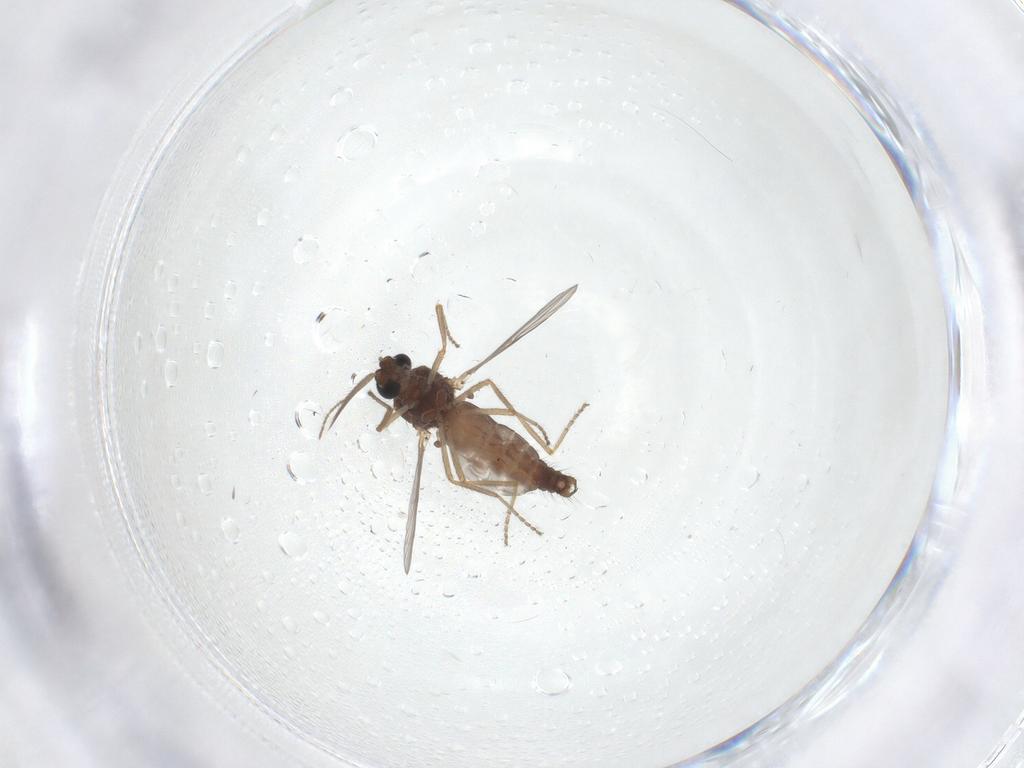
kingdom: Animalia
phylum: Arthropoda
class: Insecta
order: Diptera
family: Ceratopogonidae
